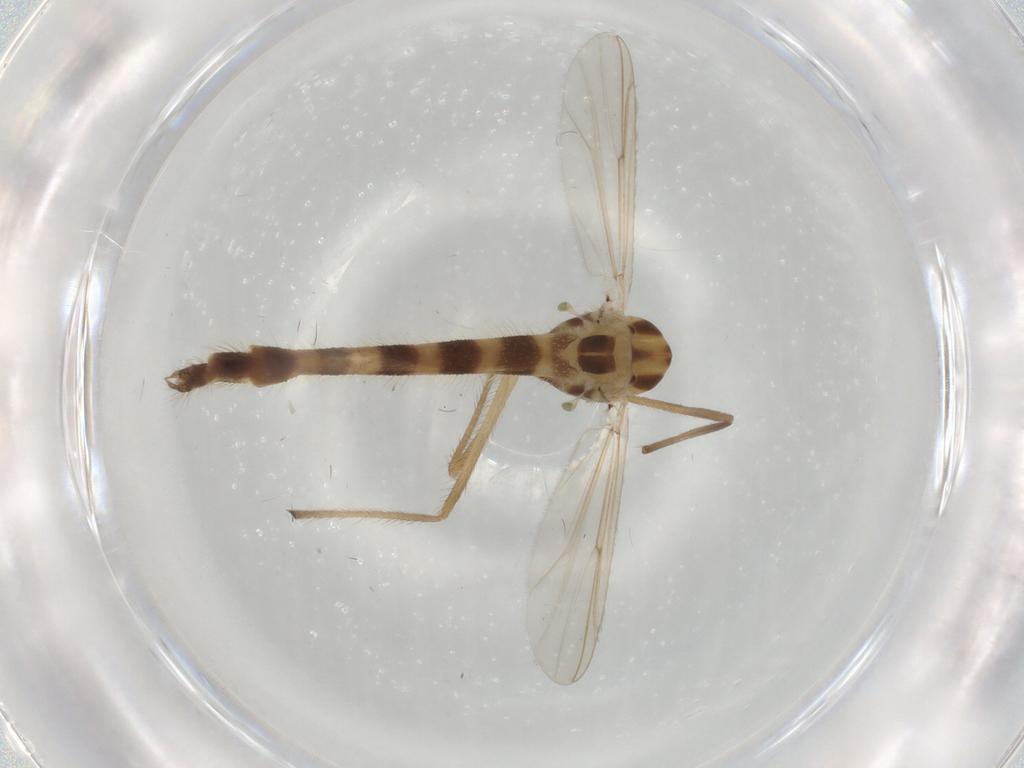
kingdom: Animalia
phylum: Arthropoda
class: Insecta
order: Diptera
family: Chironomidae
